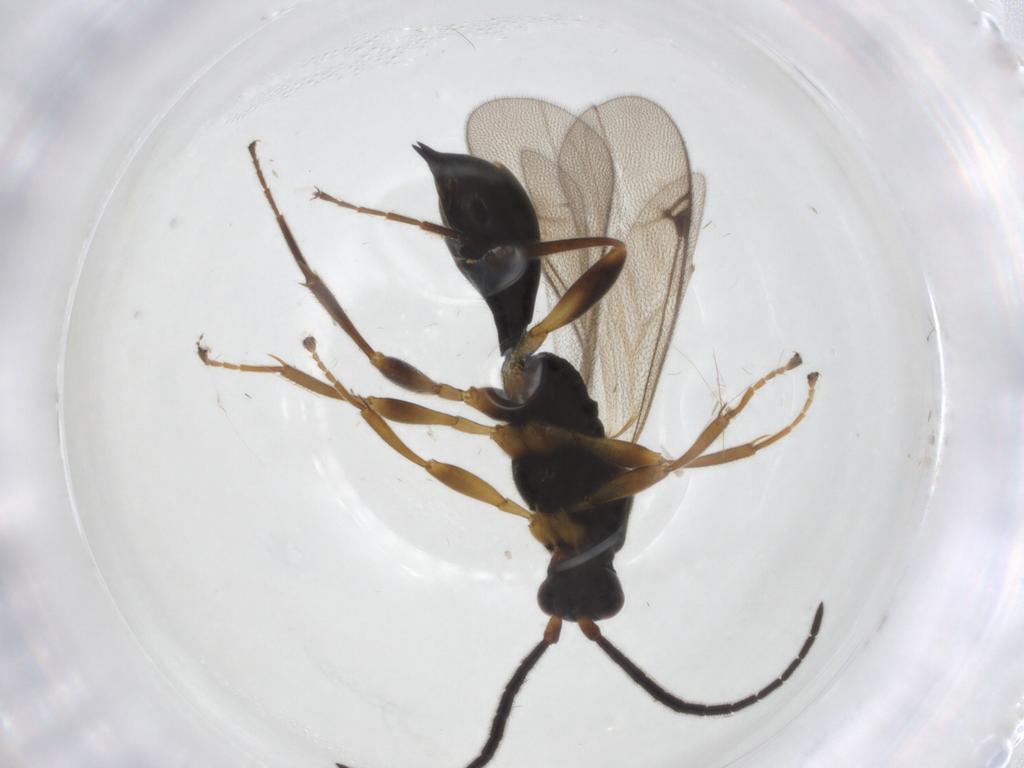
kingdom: Animalia
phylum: Arthropoda
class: Insecta
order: Hymenoptera
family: Proctotrupidae
